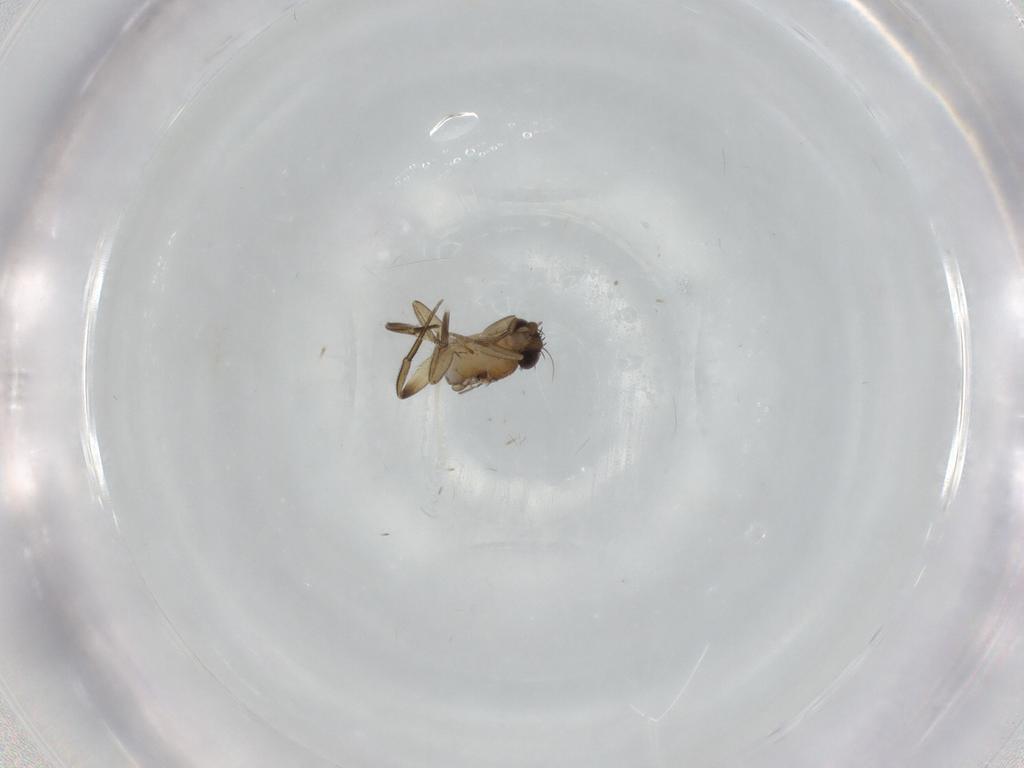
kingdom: Animalia
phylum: Arthropoda
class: Insecta
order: Diptera
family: Phoridae
